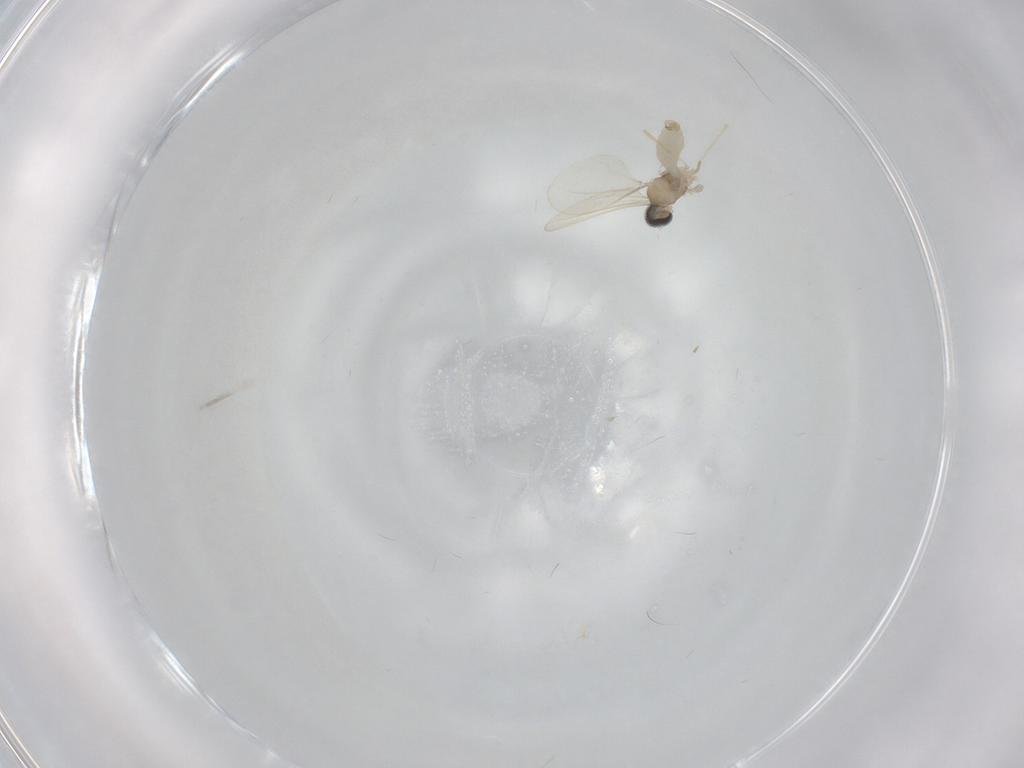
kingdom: Animalia
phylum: Arthropoda
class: Insecta
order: Diptera
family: Cecidomyiidae
